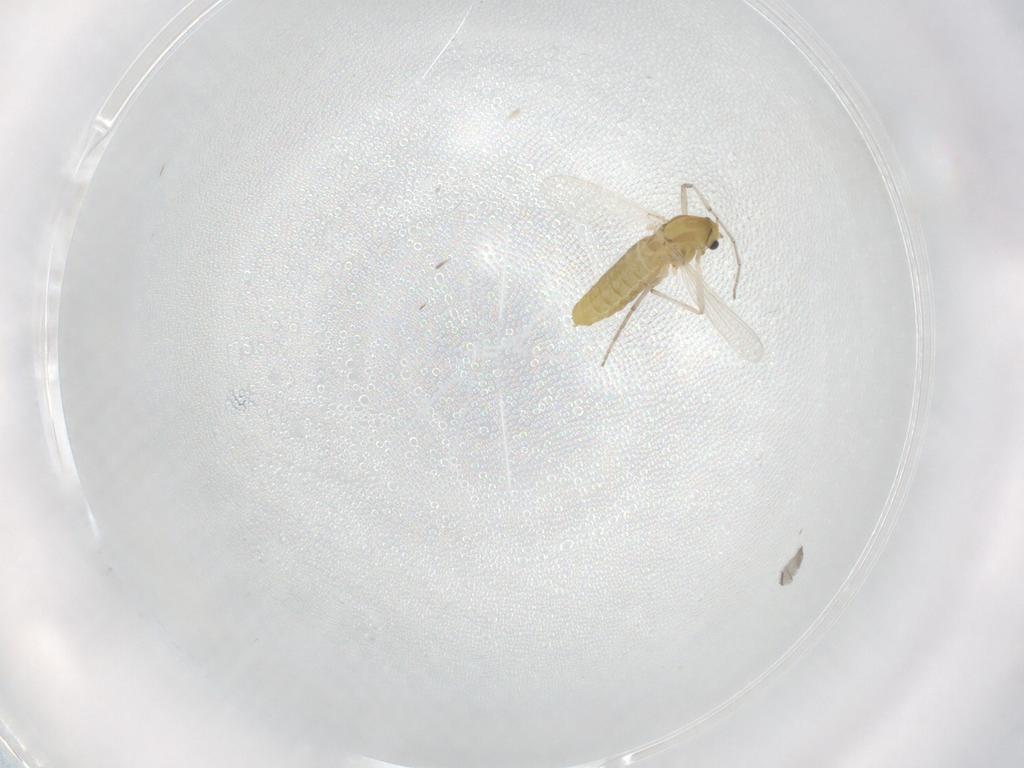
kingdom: Animalia
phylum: Arthropoda
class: Insecta
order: Diptera
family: Chironomidae
